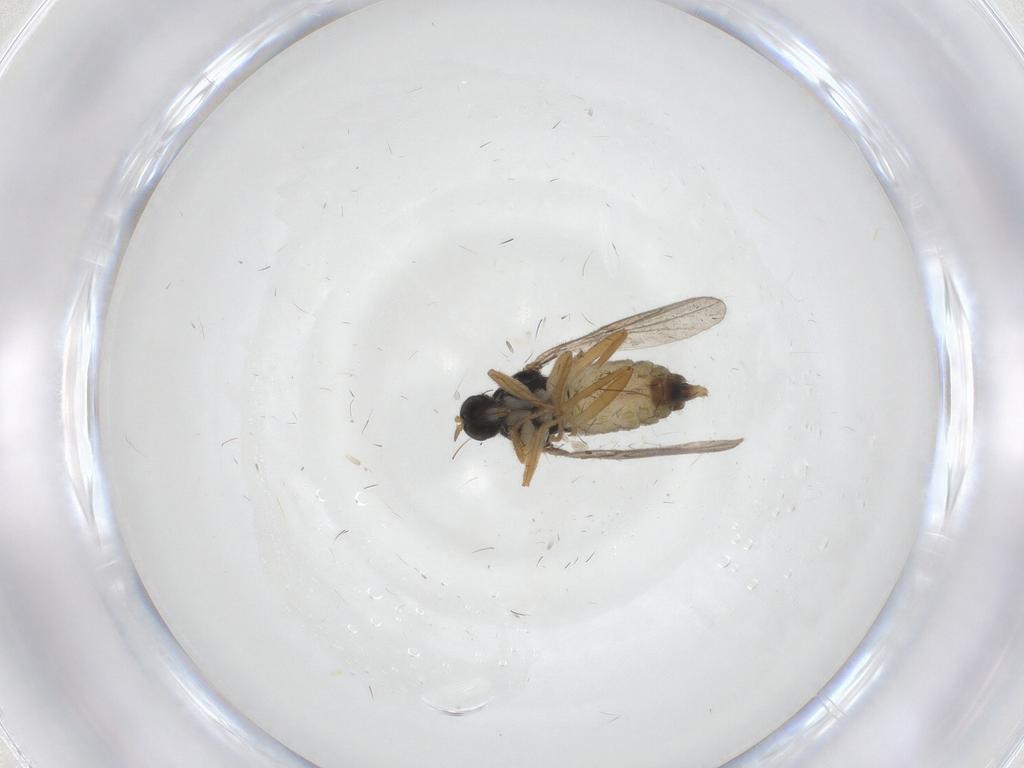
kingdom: Animalia
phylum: Arthropoda
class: Insecta
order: Diptera
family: Hybotidae
